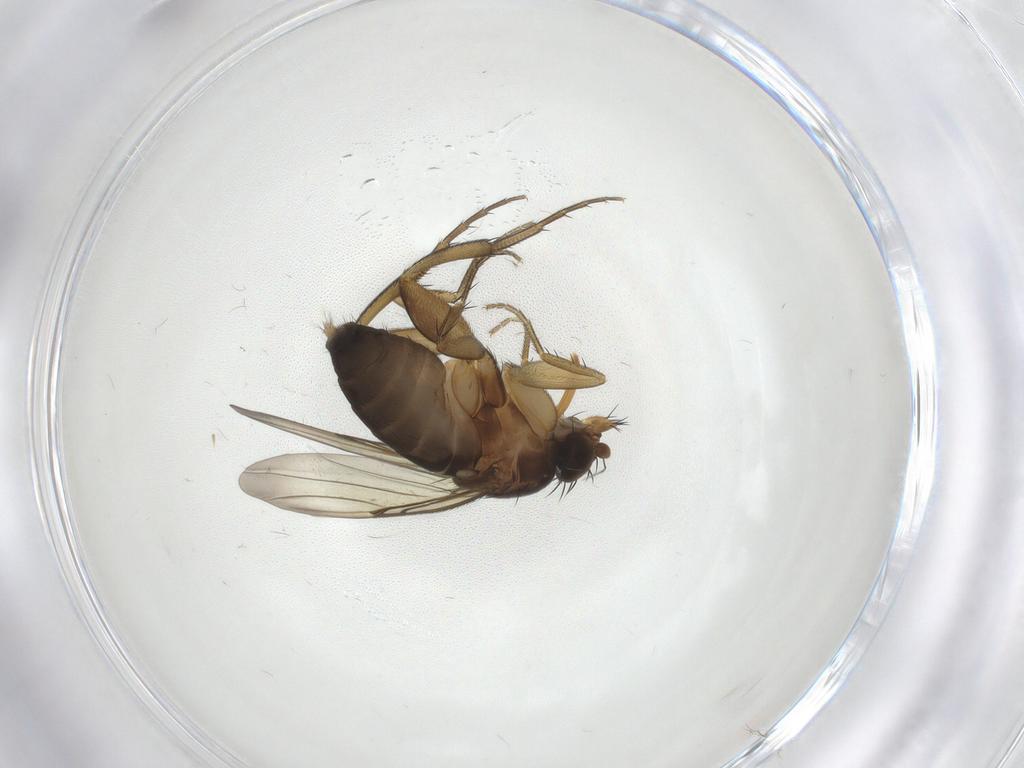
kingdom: Animalia
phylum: Arthropoda
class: Insecta
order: Diptera
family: Phoridae
